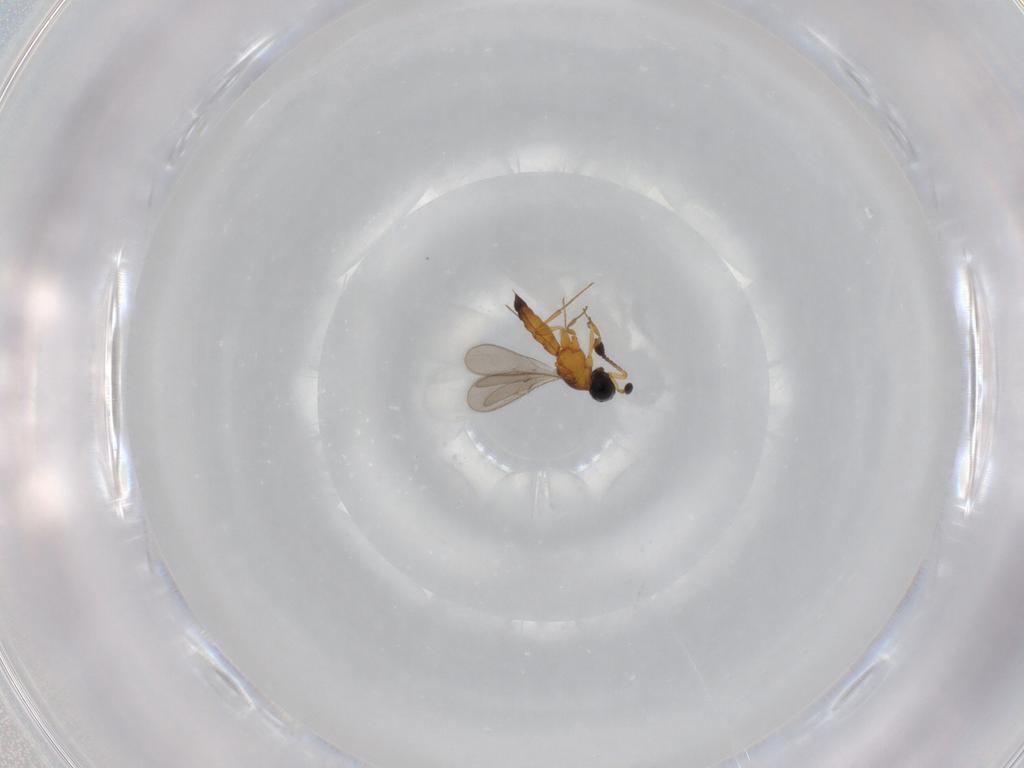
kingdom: Animalia
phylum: Arthropoda
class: Insecta
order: Hymenoptera
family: Scelionidae
